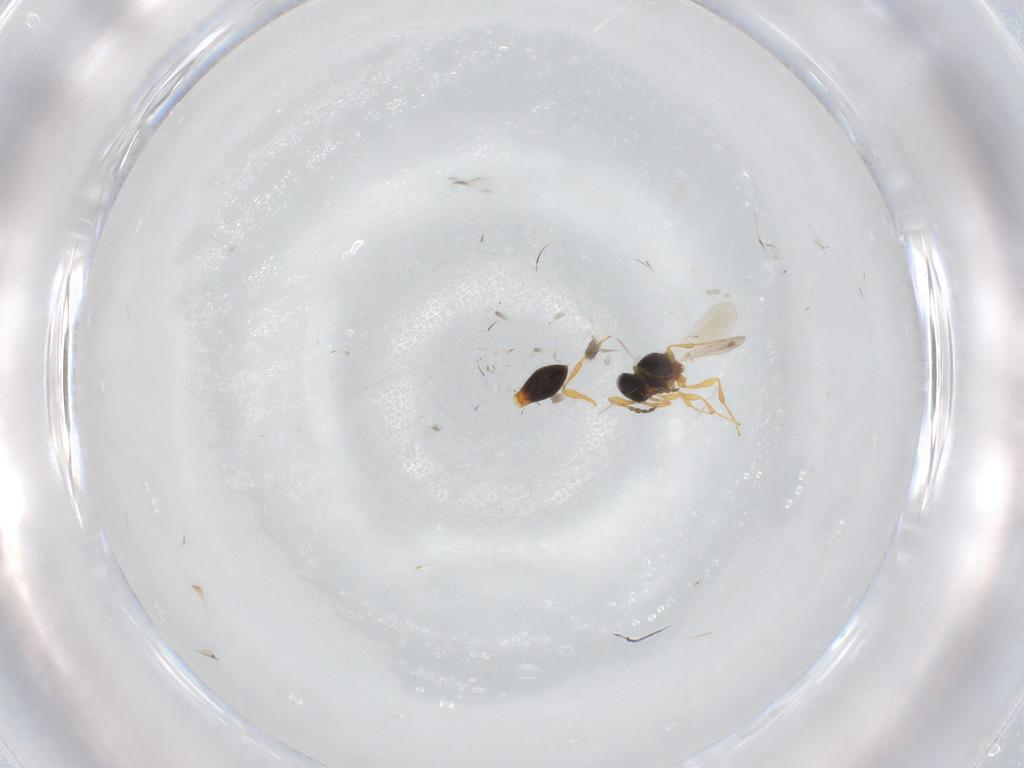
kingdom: Animalia
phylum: Arthropoda
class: Insecta
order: Hymenoptera
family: Platygastridae
